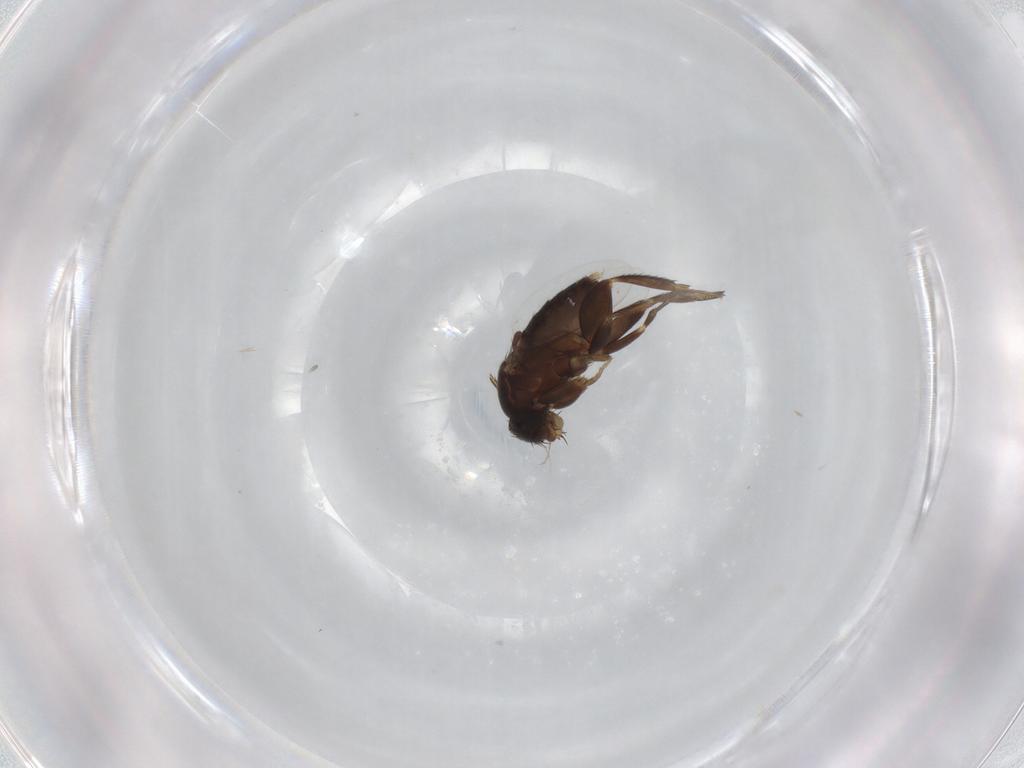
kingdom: Animalia
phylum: Arthropoda
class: Insecta
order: Diptera
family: Phoridae
